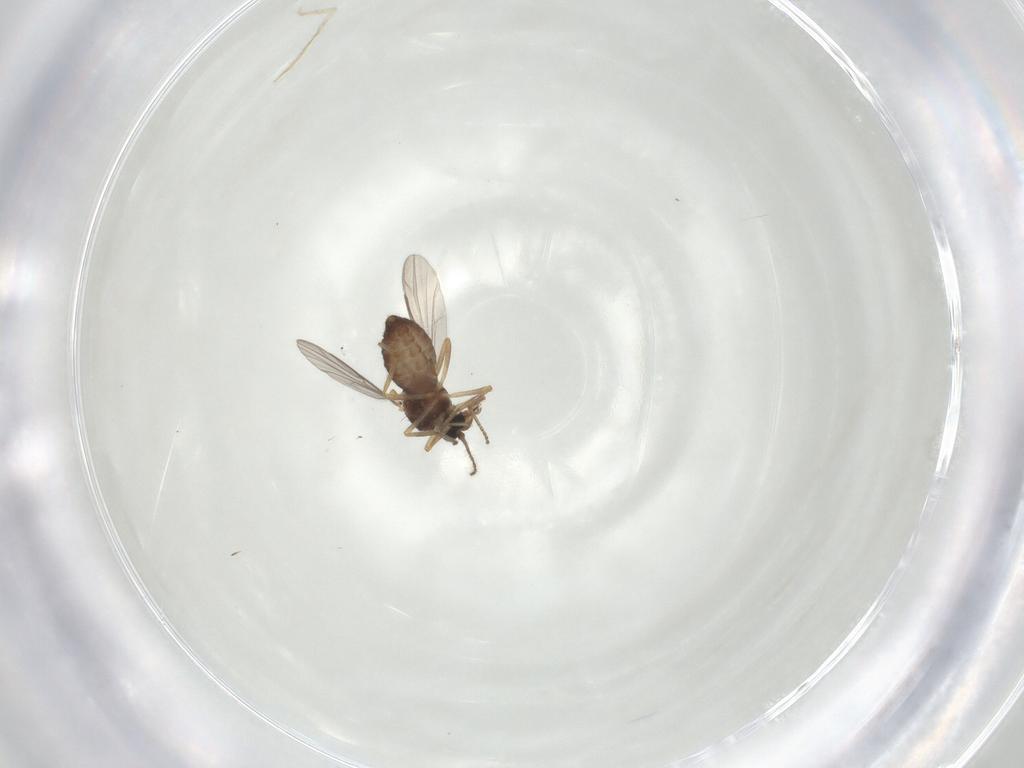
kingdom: Animalia
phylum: Arthropoda
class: Insecta
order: Diptera
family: Ceratopogonidae
